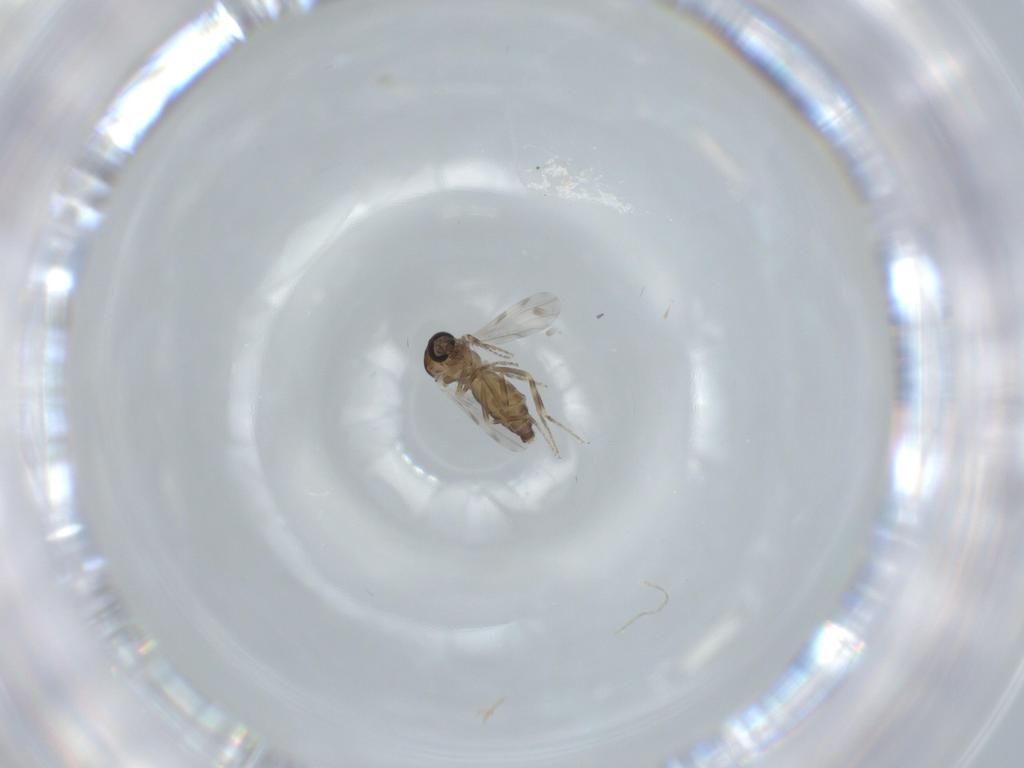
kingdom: Animalia
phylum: Arthropoda
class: Insecta
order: Diptera
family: Ceratopogonidae
